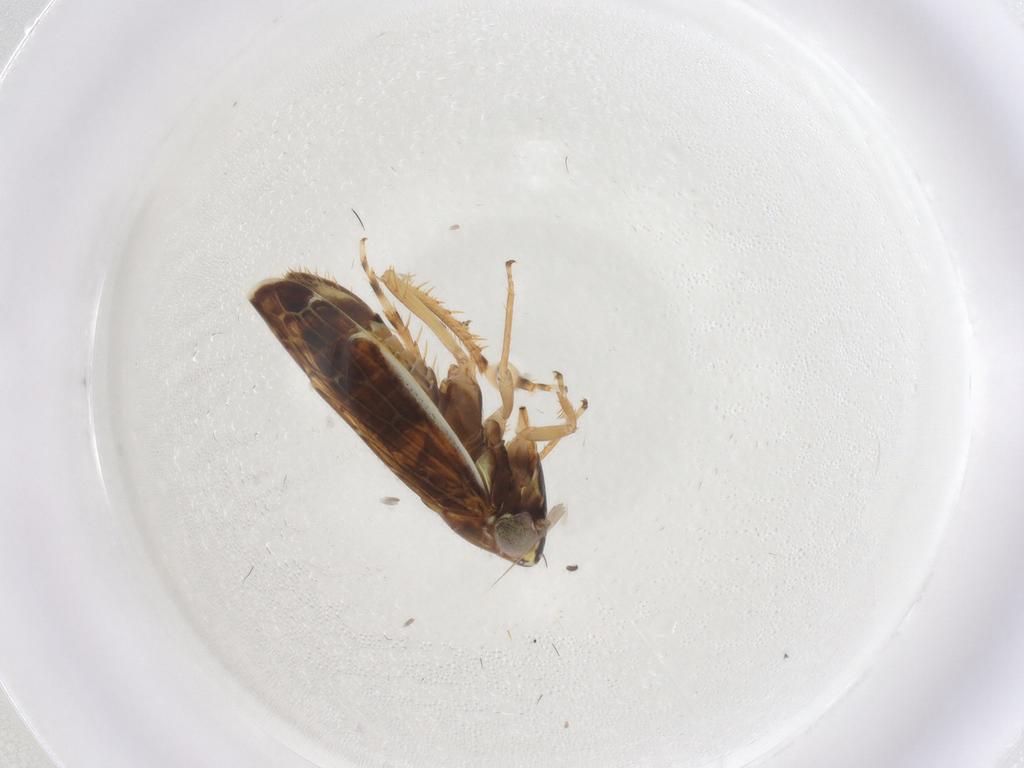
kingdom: Animalia
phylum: Arthropoda
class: Insecta
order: Hemiptera
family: Cicadellidae
